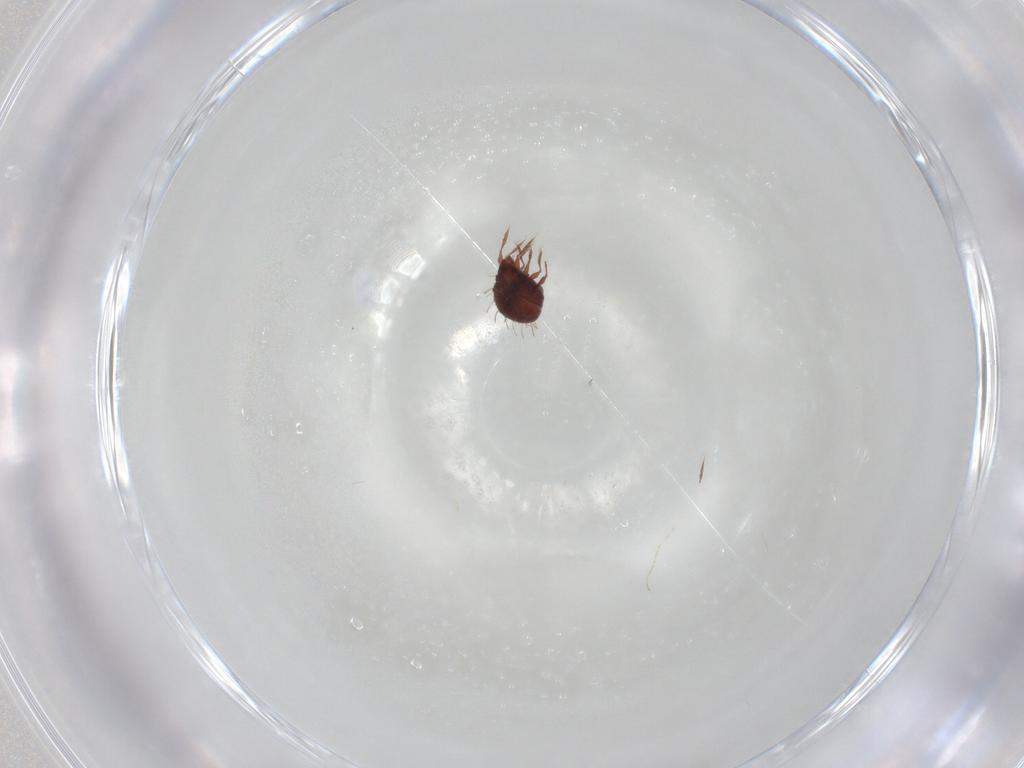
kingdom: Animalia
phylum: Arthropoda
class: Arachnida
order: Sarcoptiformes
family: Caloppiidae
